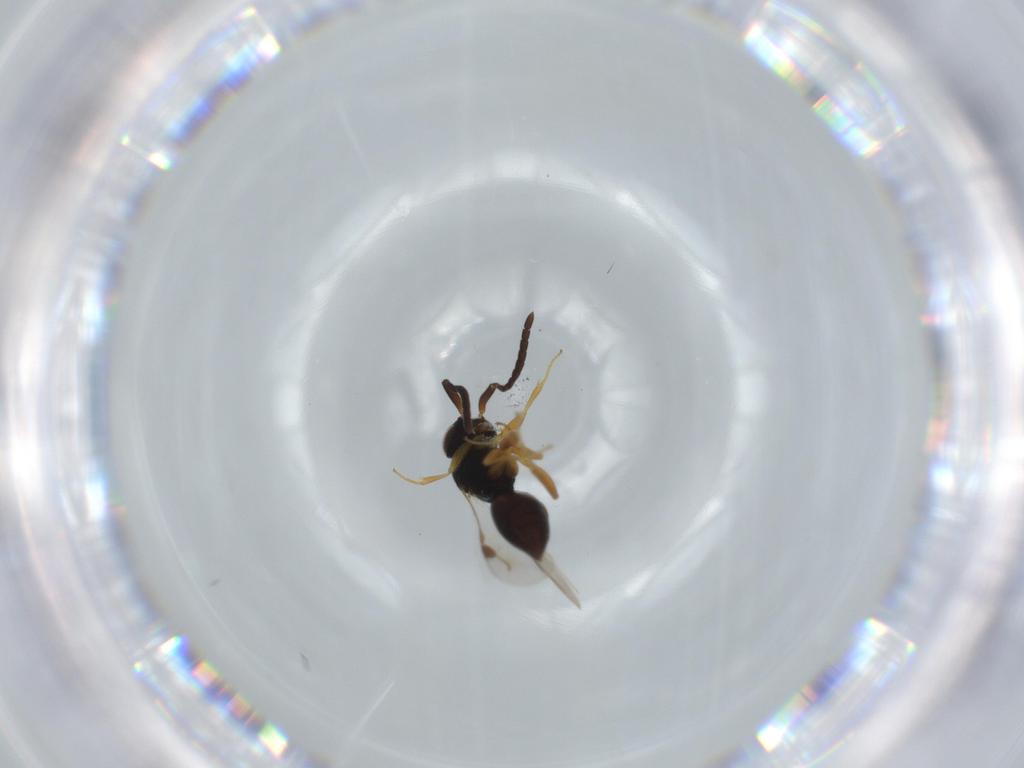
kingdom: Animalia
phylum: Arthropoda
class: Insecta
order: Hymenoptera
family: Megaspilidae
